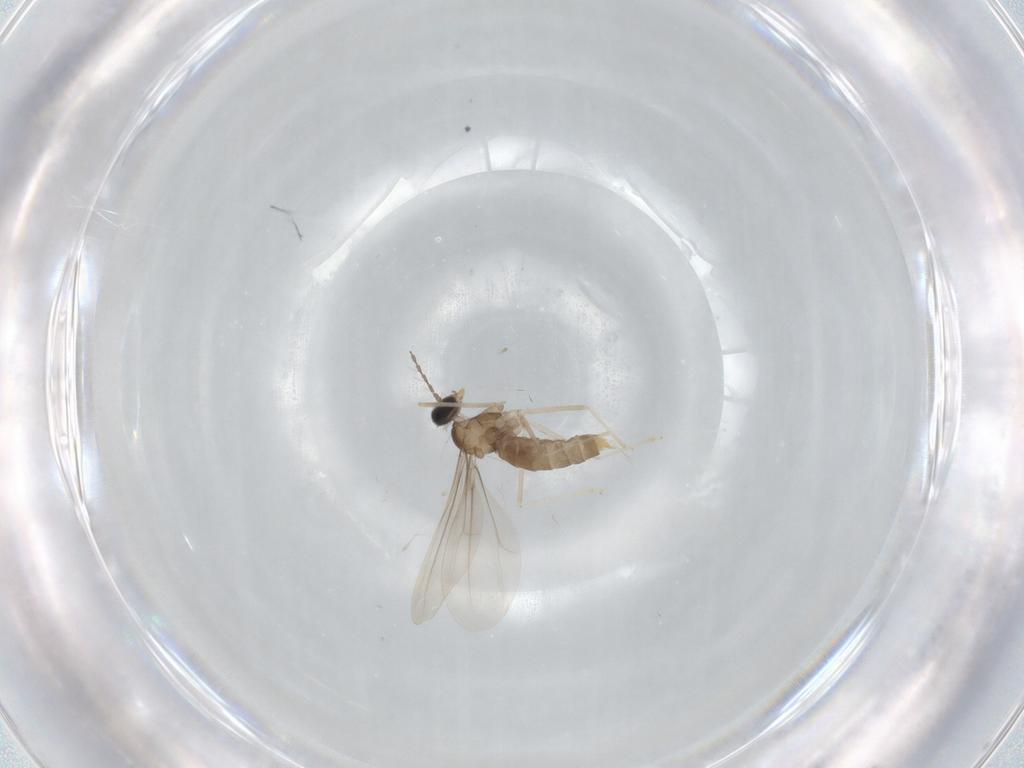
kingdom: Animalia
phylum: Arthropoda
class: Insecta
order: Diptera
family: Cecidomyiidae
